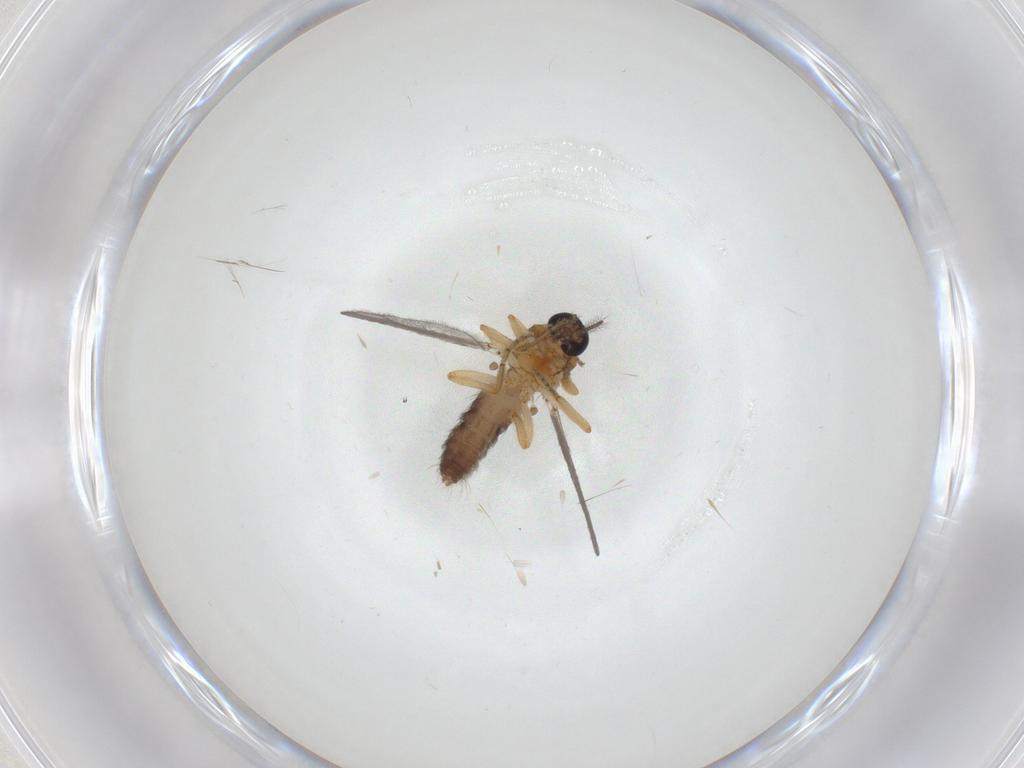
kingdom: Animalia
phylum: Arthropoda
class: Insecta
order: Diptera
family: Ceratopogonidae
